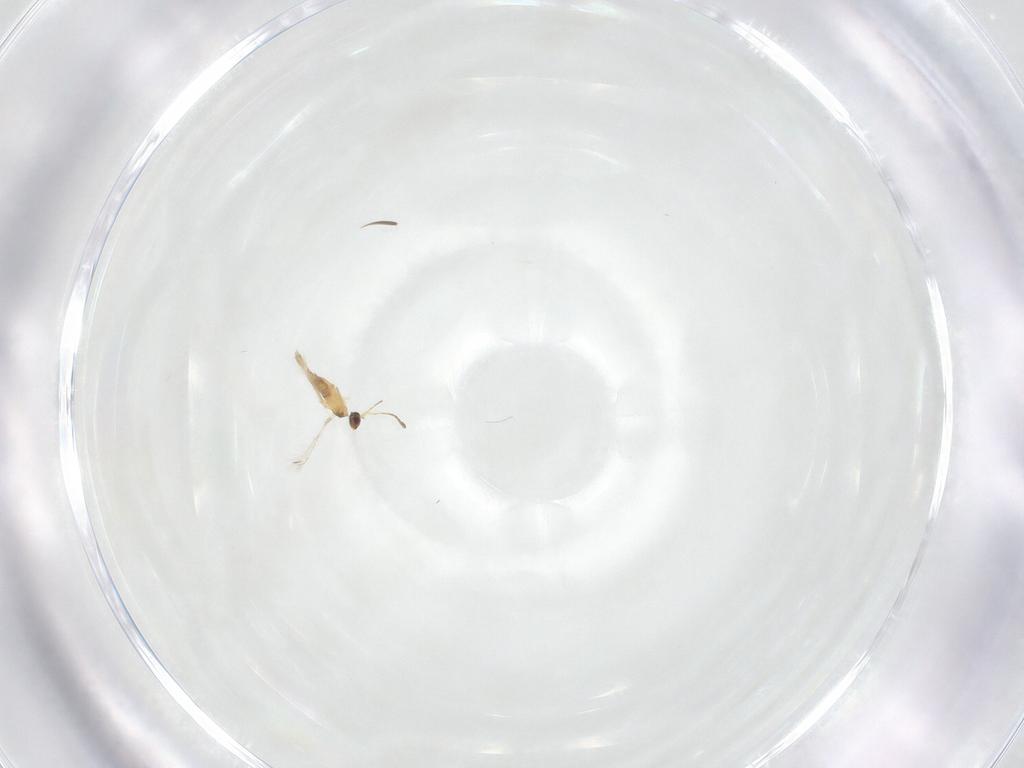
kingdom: Animalia
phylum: Arthropoda
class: Insecta
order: Hymenoptera
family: Mymaridae
